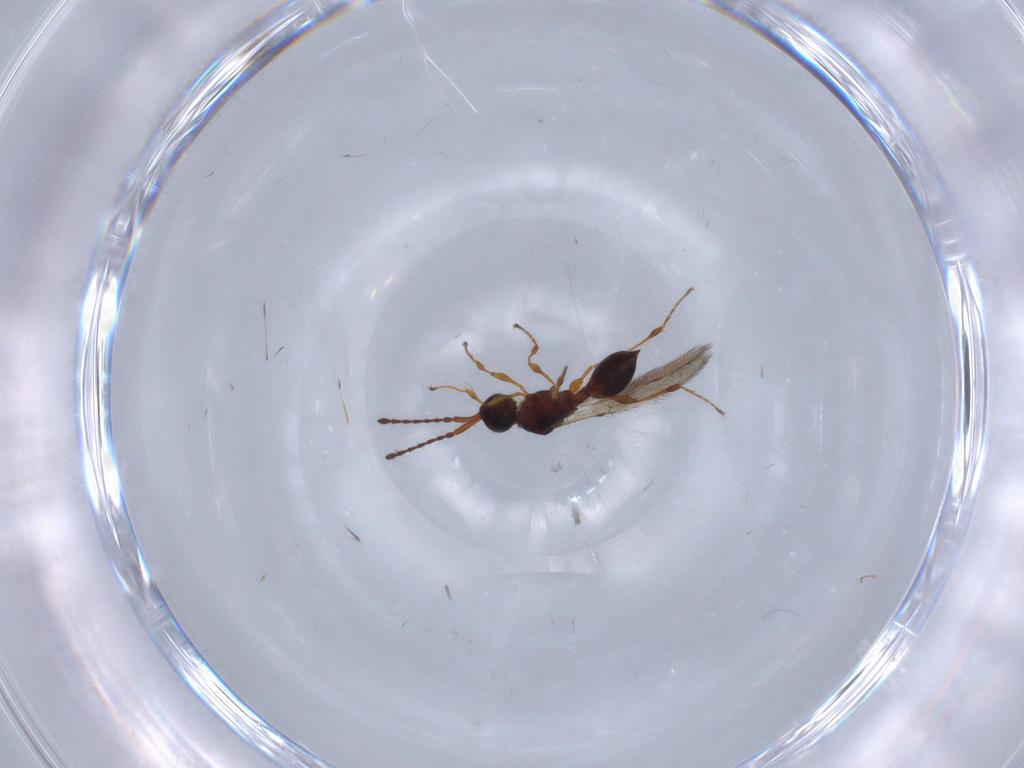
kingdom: Animalia
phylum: Arthropoda
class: Insecta
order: Hymenoptera
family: Diapriidae
